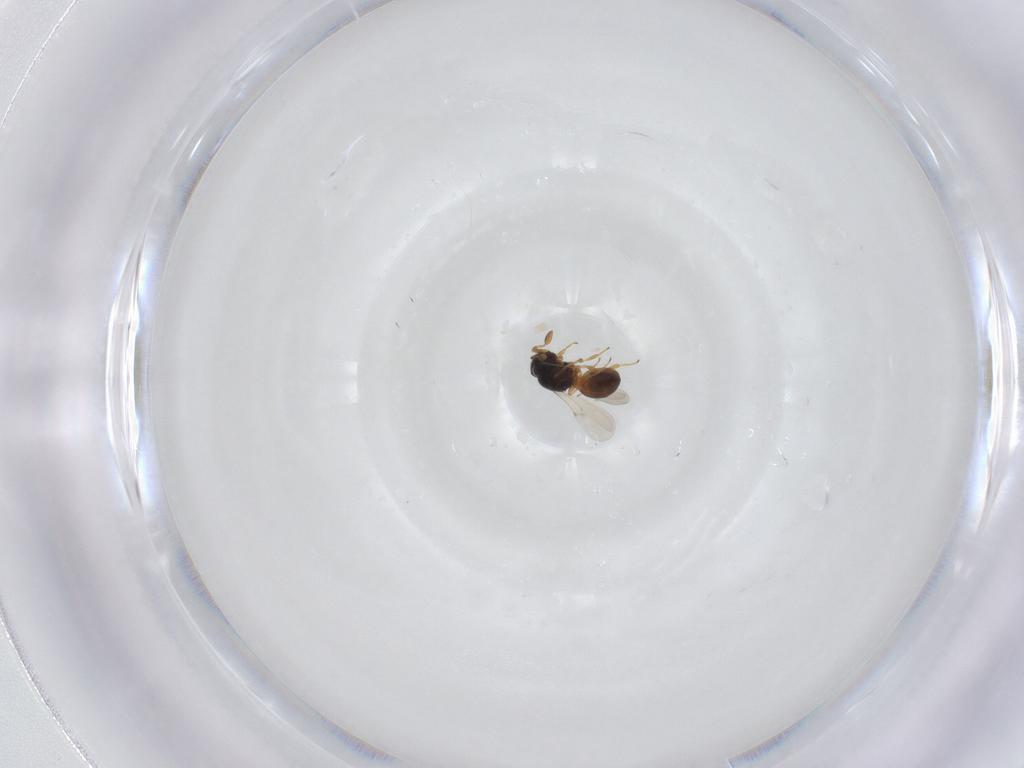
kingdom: Animalia
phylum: Arthropoda
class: Insecta
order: Hymenoptera
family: Scelionidae
